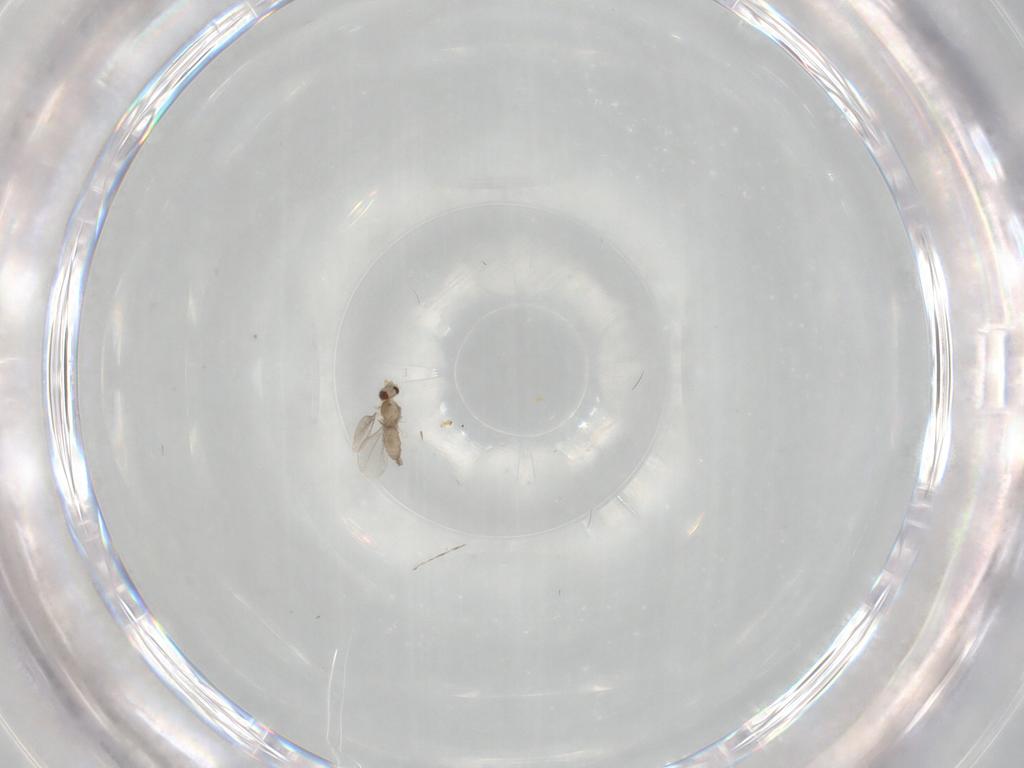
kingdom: Animalia
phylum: Arthropoda
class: Insecta
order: Diptera
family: Cecidomyiidae
